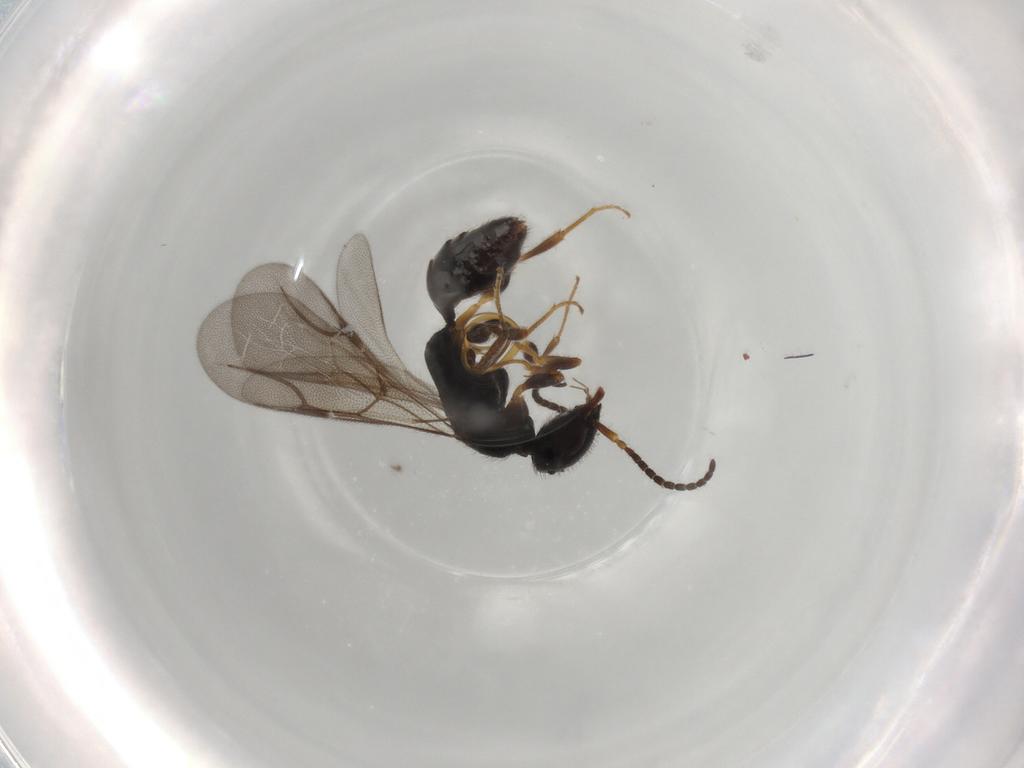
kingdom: Animalia
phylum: Arthropoda
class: Insecta
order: Hymenoptera
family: Bethylidae
